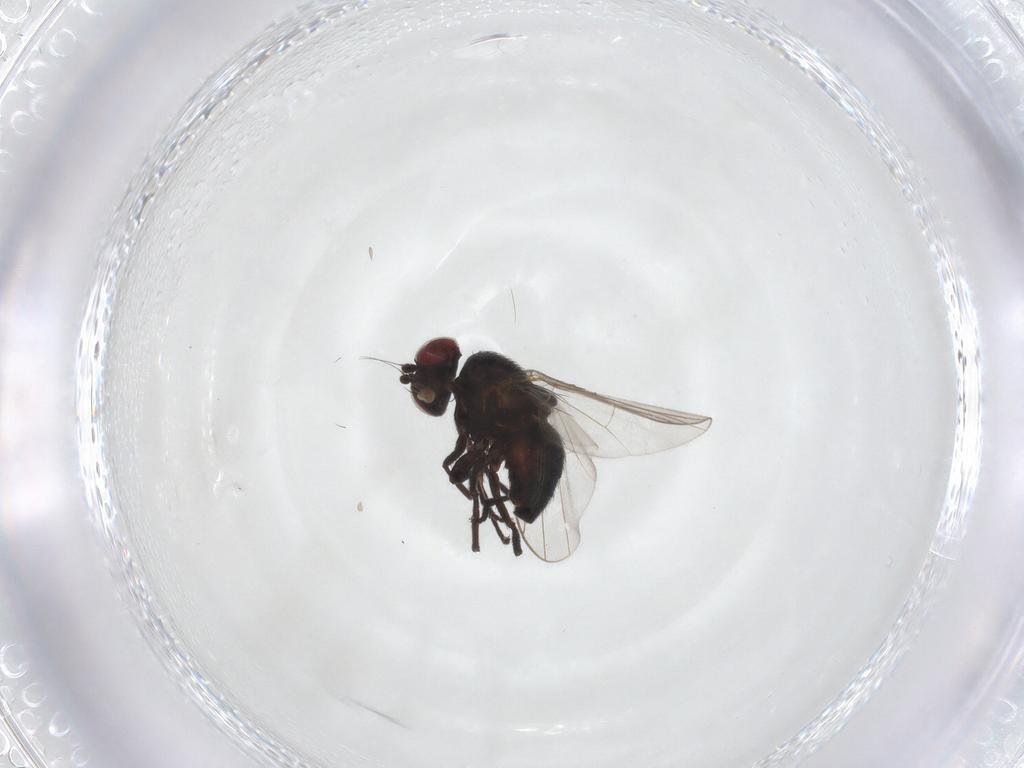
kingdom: Animalia
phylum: Arthropoda
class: Insecta
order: Diptera
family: Agromyzidae
